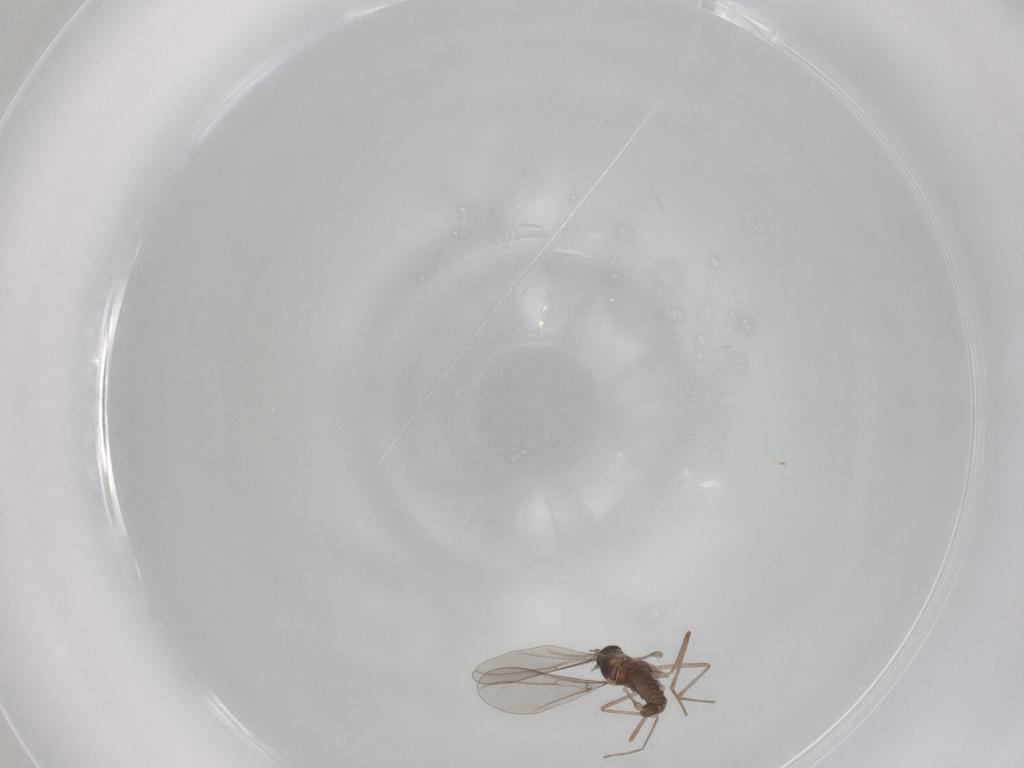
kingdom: Animalia
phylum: Arthropoda
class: Insecta
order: Diptera
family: Cecidomyiidae
